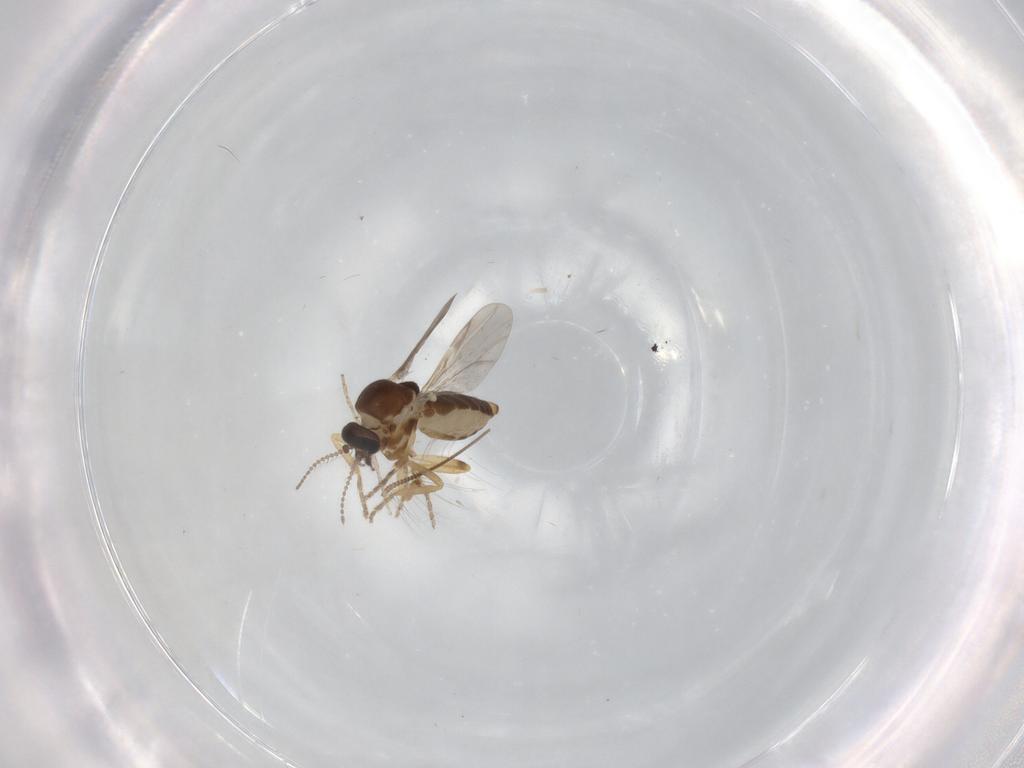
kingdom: Animalia
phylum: Arthropoda
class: Insecta
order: Diptera
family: Ceratopogonidae
